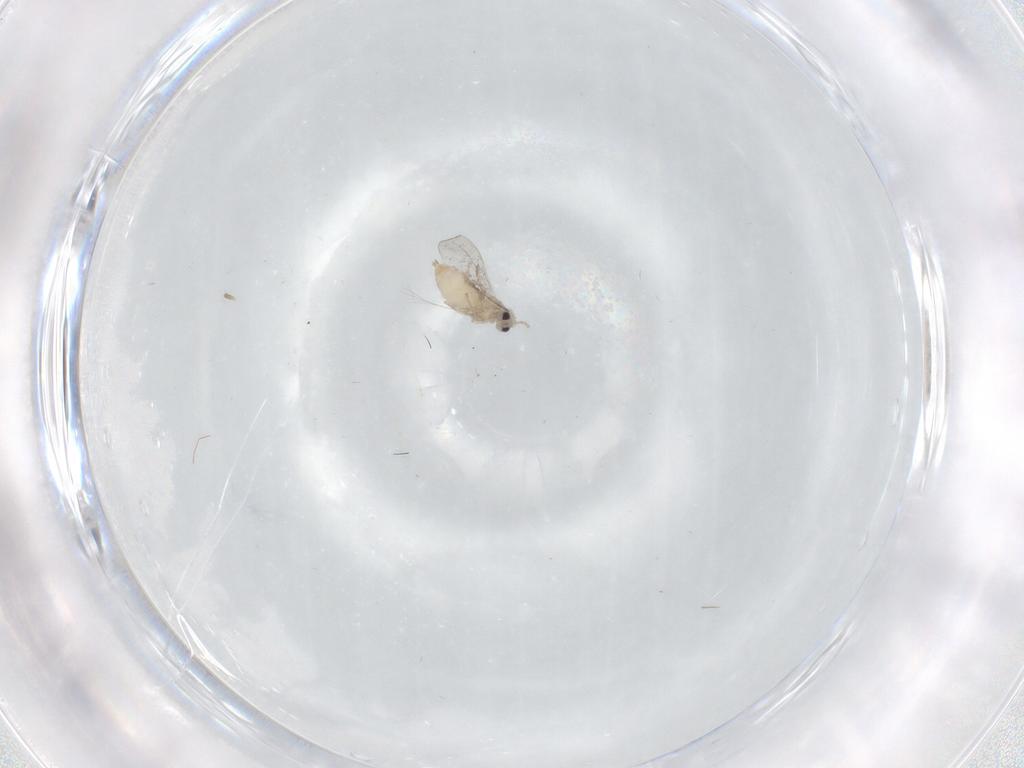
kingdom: Animalia
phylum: Arthropoda
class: Insecta
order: Diptera
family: Cecidomyiidae
